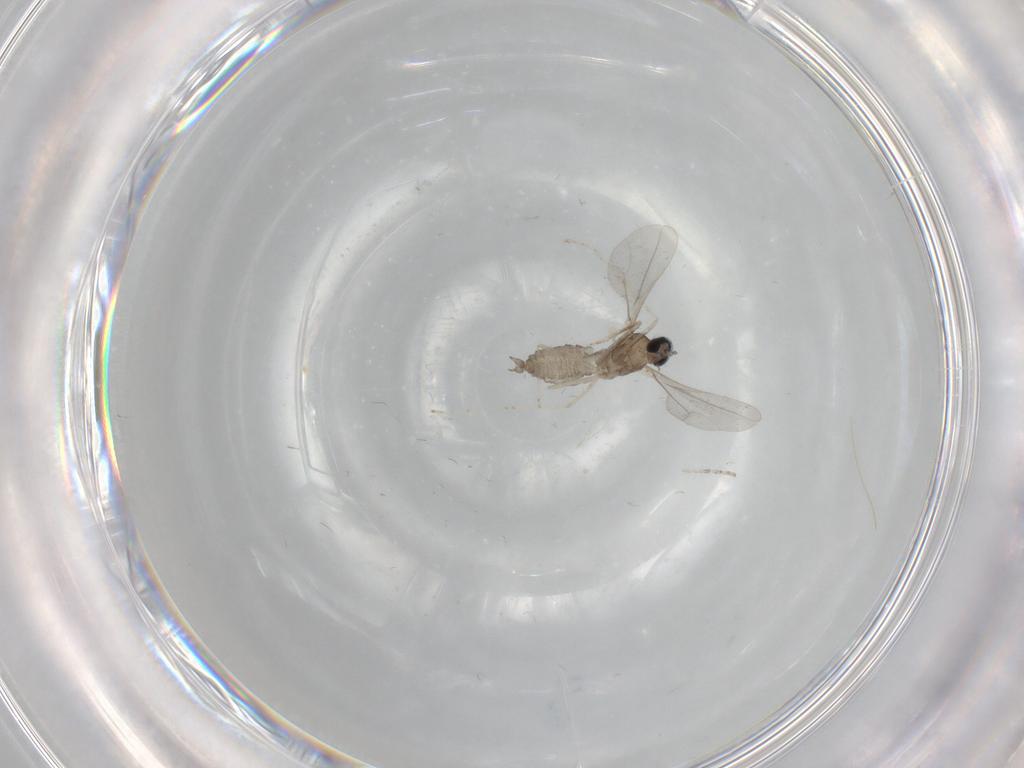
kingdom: Animalia
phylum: Arthropoda
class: Insecta
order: Diptera
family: Cecidomyiidae
